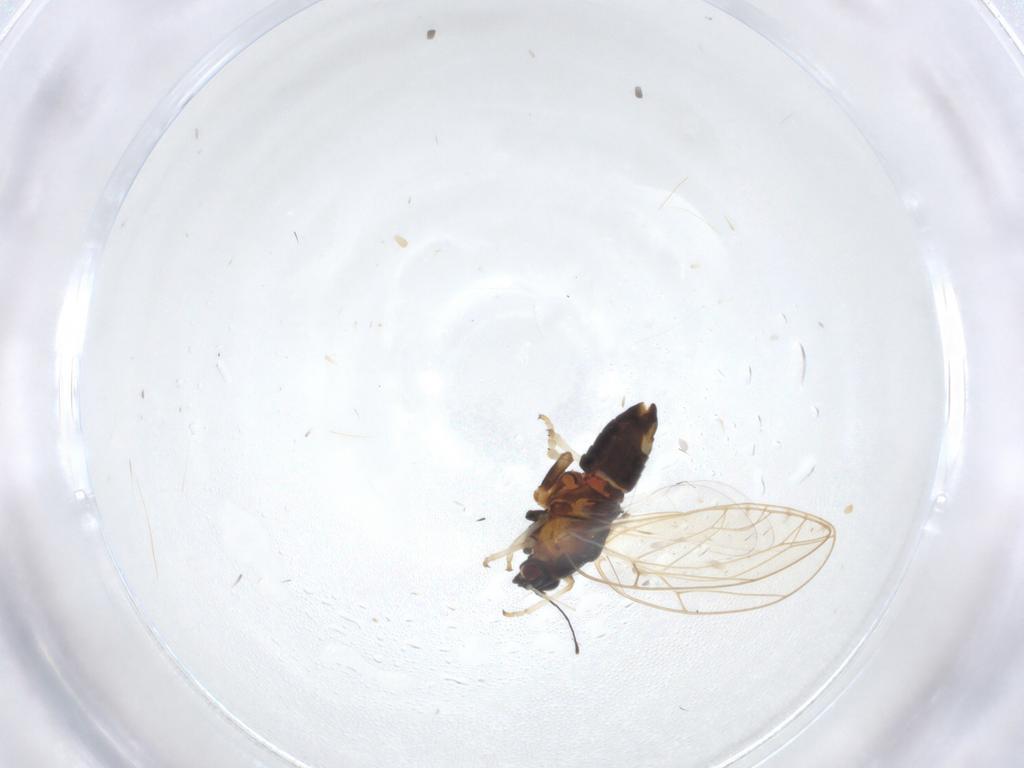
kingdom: Animalia
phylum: Arthropoda
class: Insecta
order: Hemiptera
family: Triozidae
